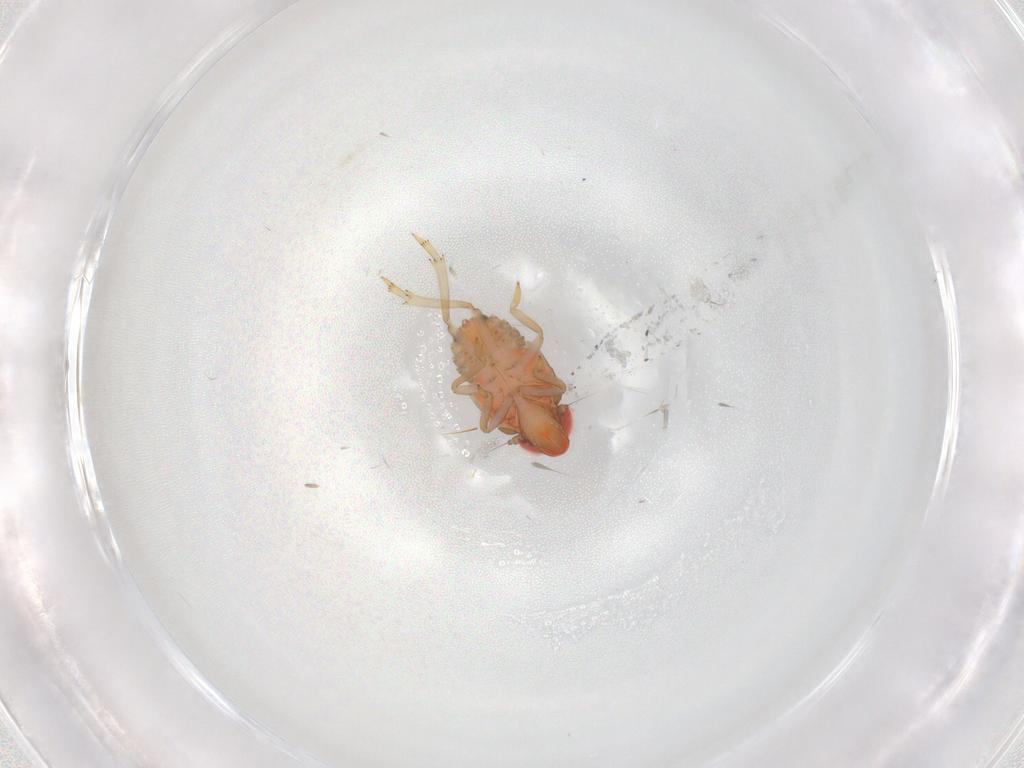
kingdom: Animalia
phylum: Arthropoda
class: Insecta
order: Hemiptera
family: Issidae
